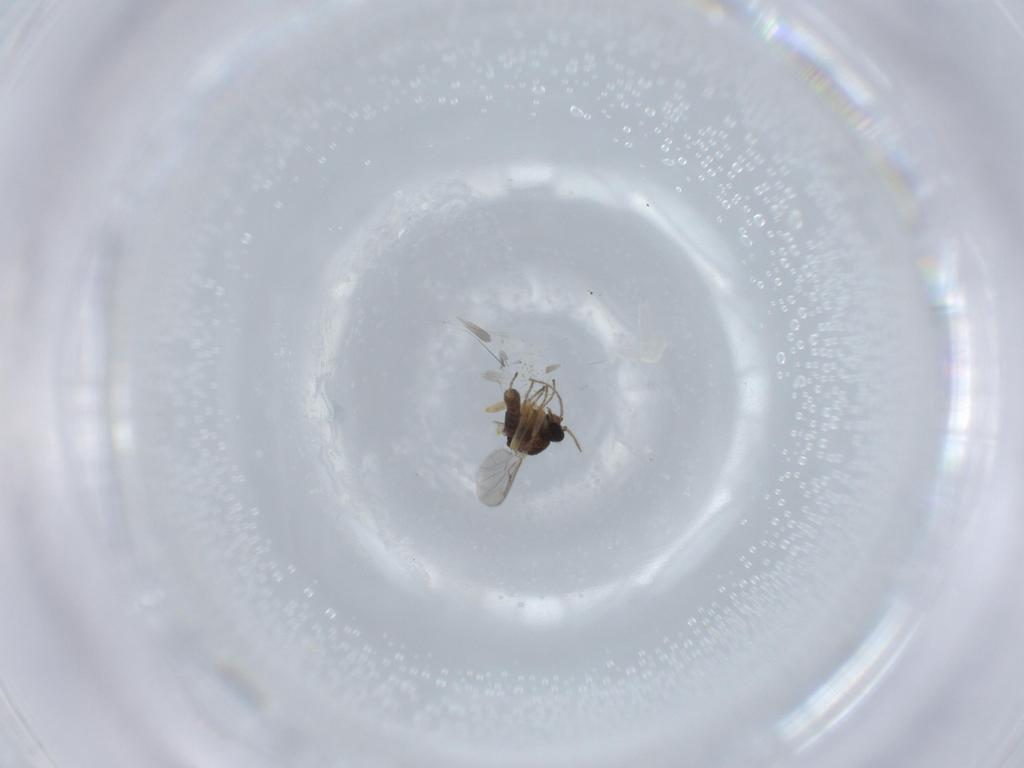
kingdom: Animalia
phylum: Arthropoda
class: Insecta
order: Diptera
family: Ceratopogonidae
